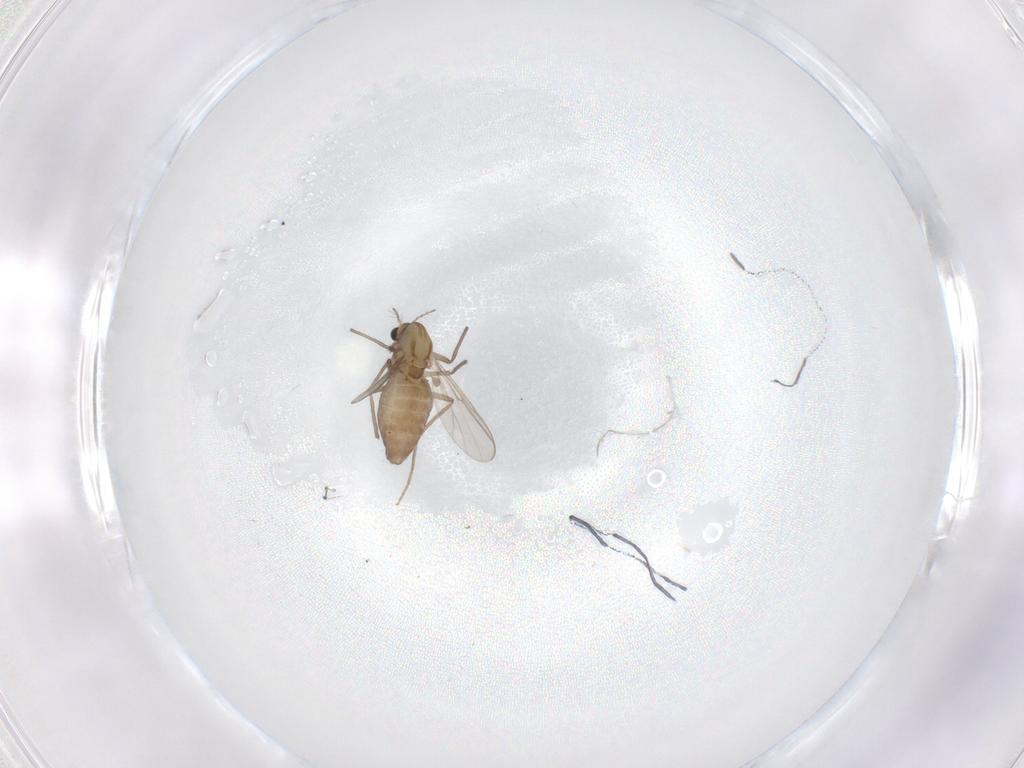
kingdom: Animalia
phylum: Arthropoda
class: Insecta
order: Diptera
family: Chironomidae
